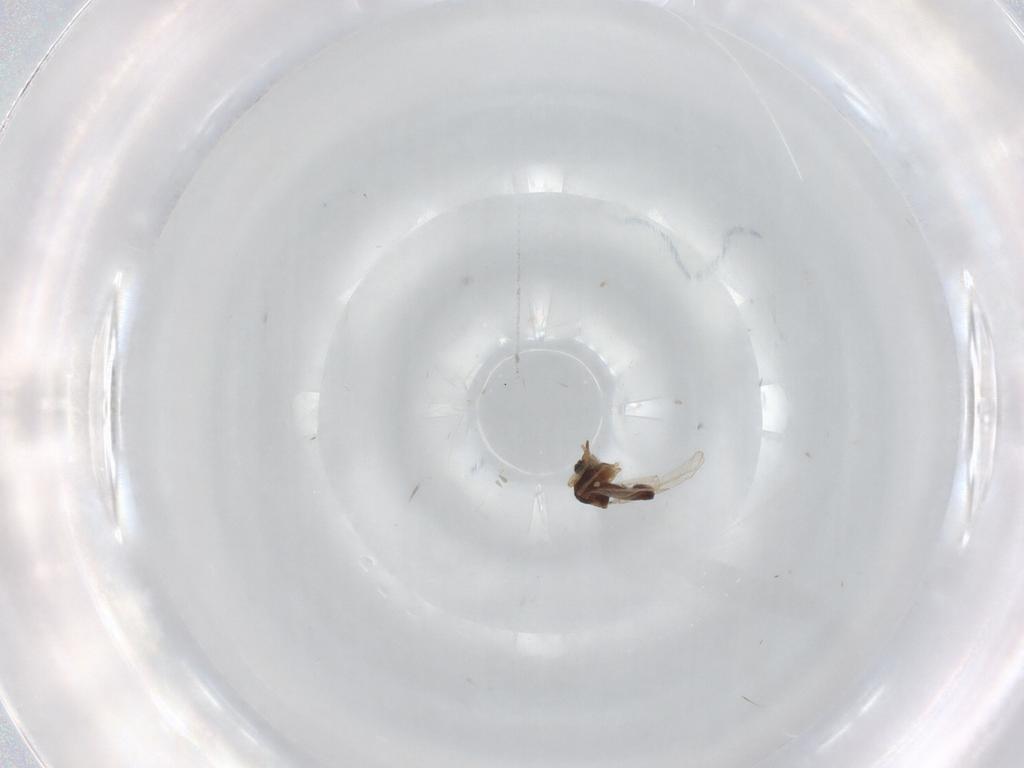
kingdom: Animalia
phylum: Arthropoda
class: Insecta
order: Diptera
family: Ceratopogonidae
